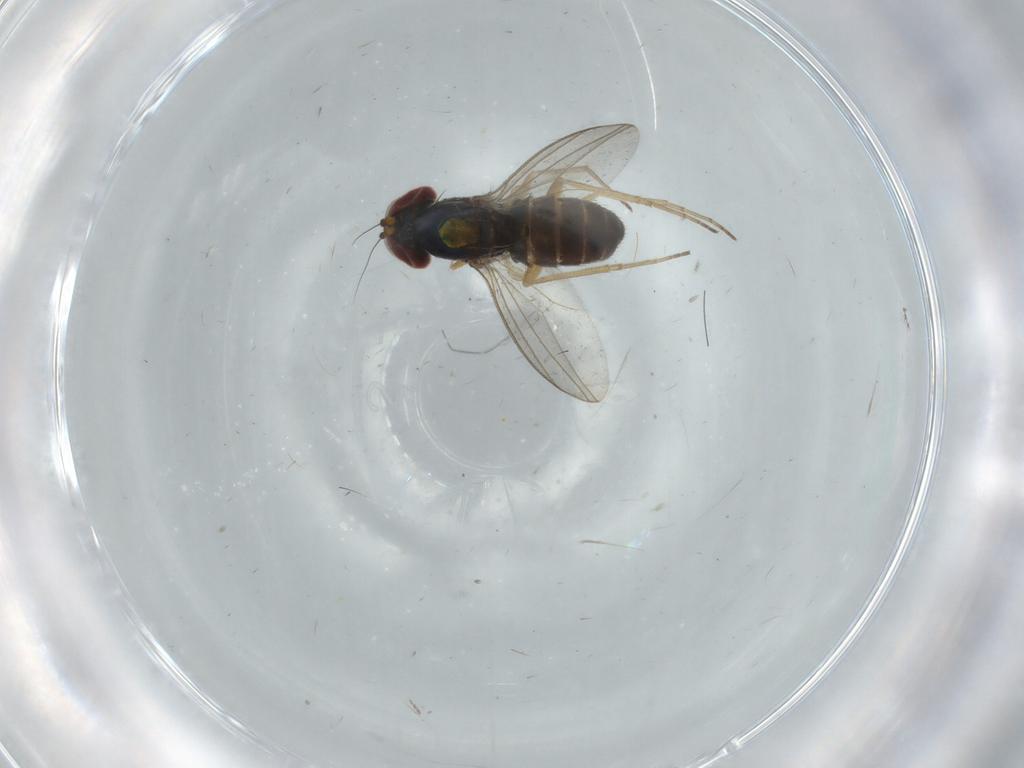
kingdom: Animalia
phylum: Arthropoda
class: Insecta
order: Diptera
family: Dolichopodidae
